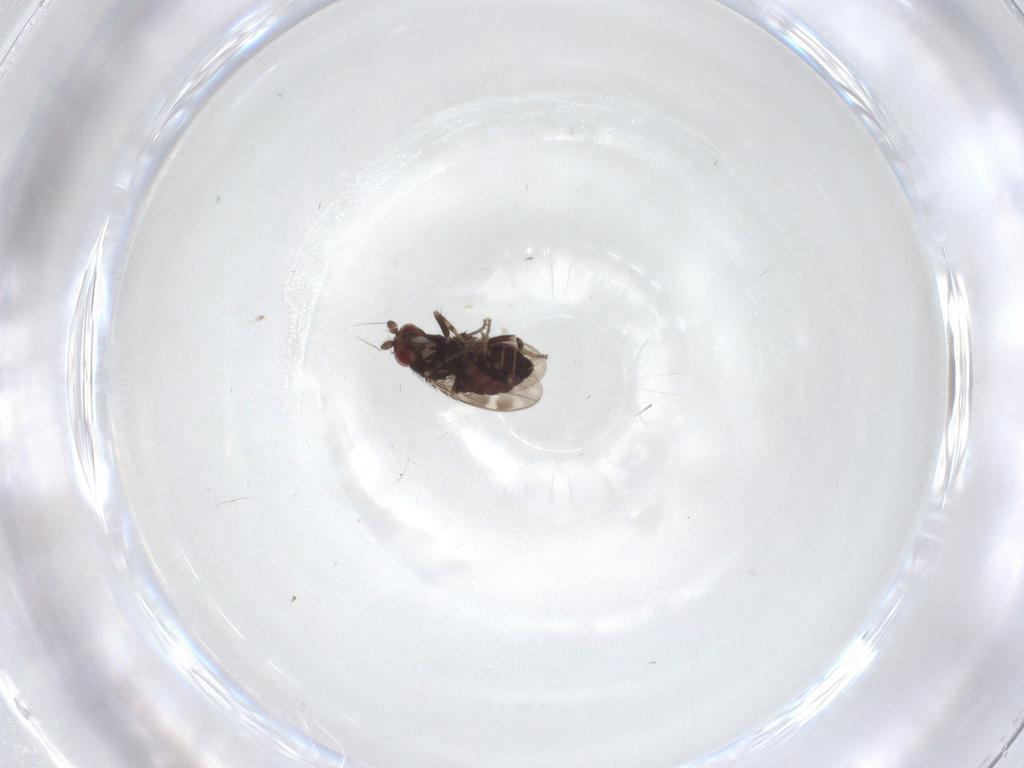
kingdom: Animalia
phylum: Arthropoda
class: Insecta
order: Diptera
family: Sphaeroceridae
